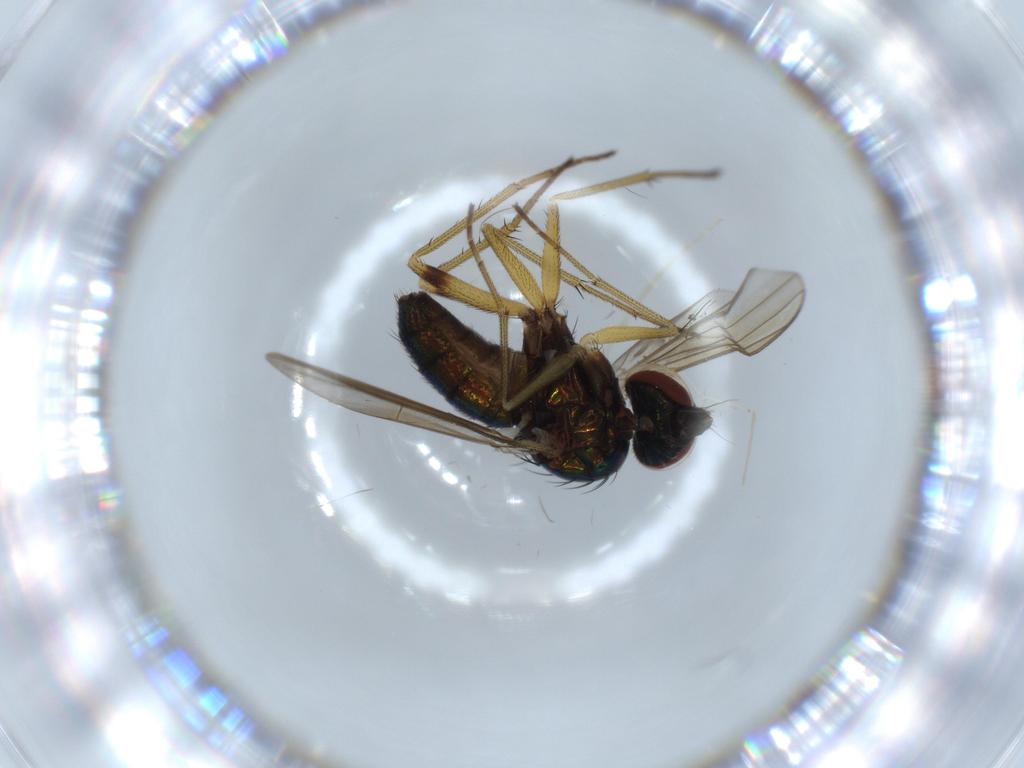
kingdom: Animalia
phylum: Arthropoda
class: Insecta
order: Diptera
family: Dolichopodidae
